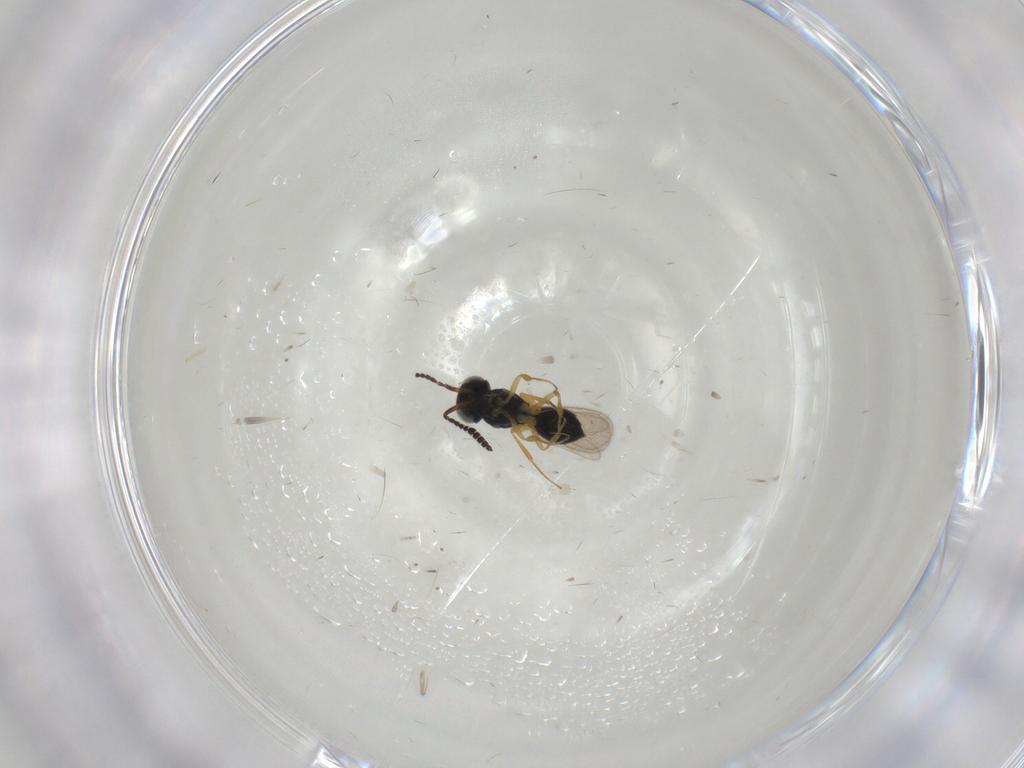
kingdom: Animalia
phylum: Arthropoda
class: Insecta
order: Hymenoptera
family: Scelionidae
